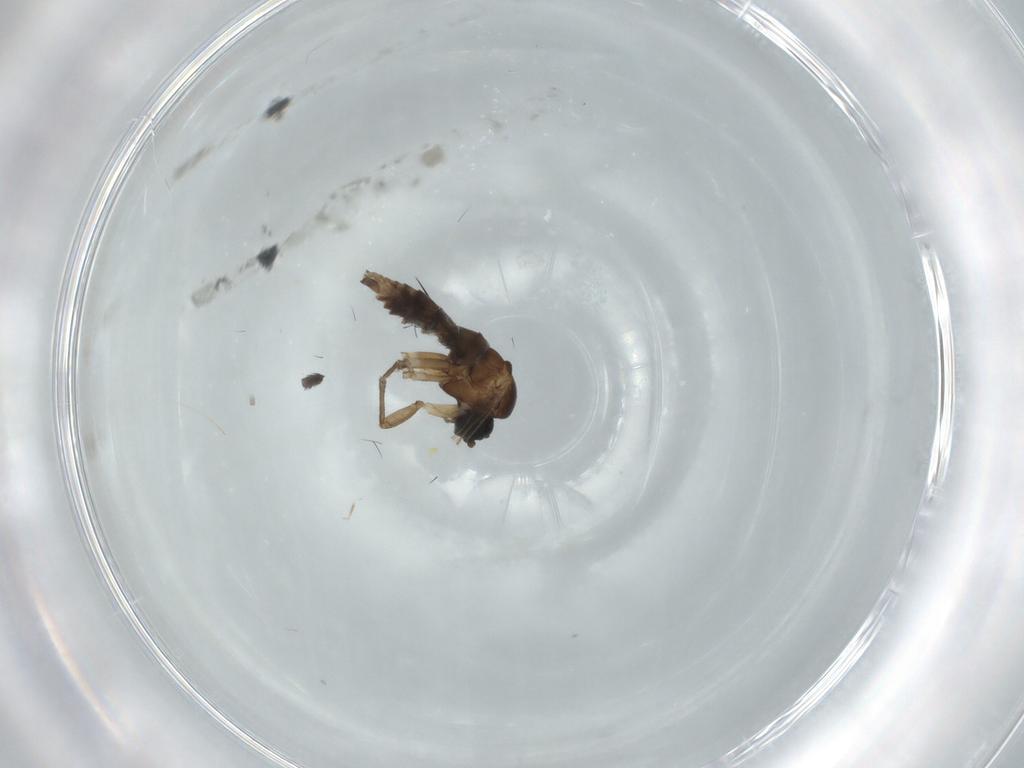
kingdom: Animalia
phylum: Arthropoda
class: Insecta
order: Diptera
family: Sciaridae
